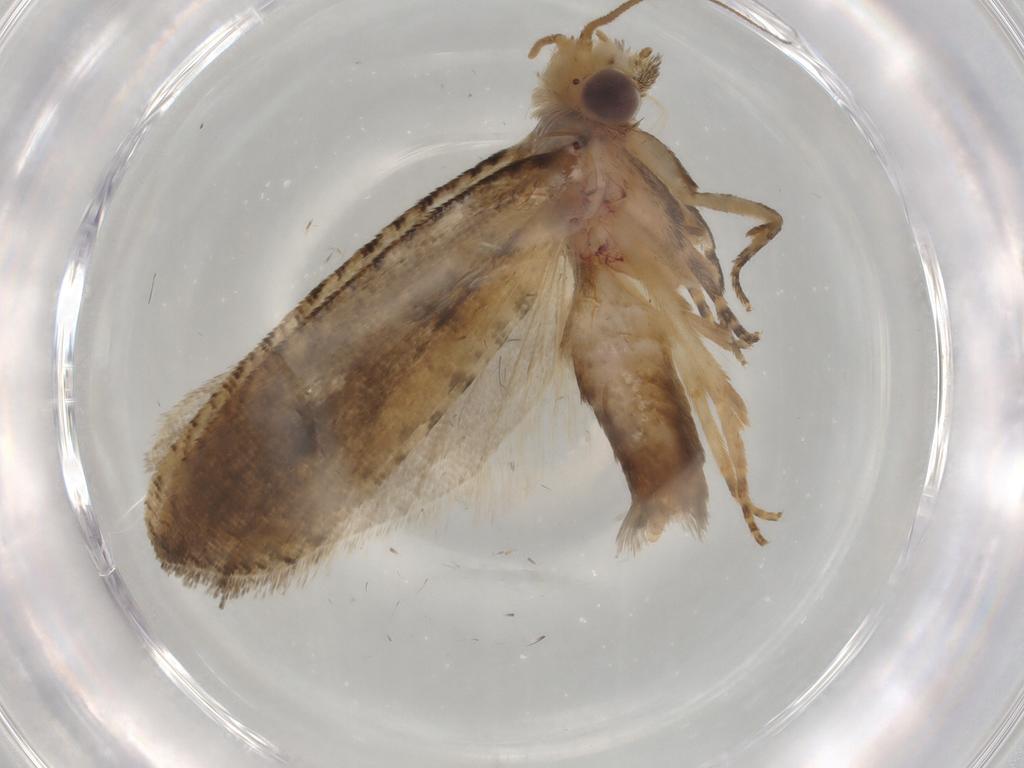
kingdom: Animalia
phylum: Arthropoda
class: Insecta
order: Lepidoptera
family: Tortricidae
